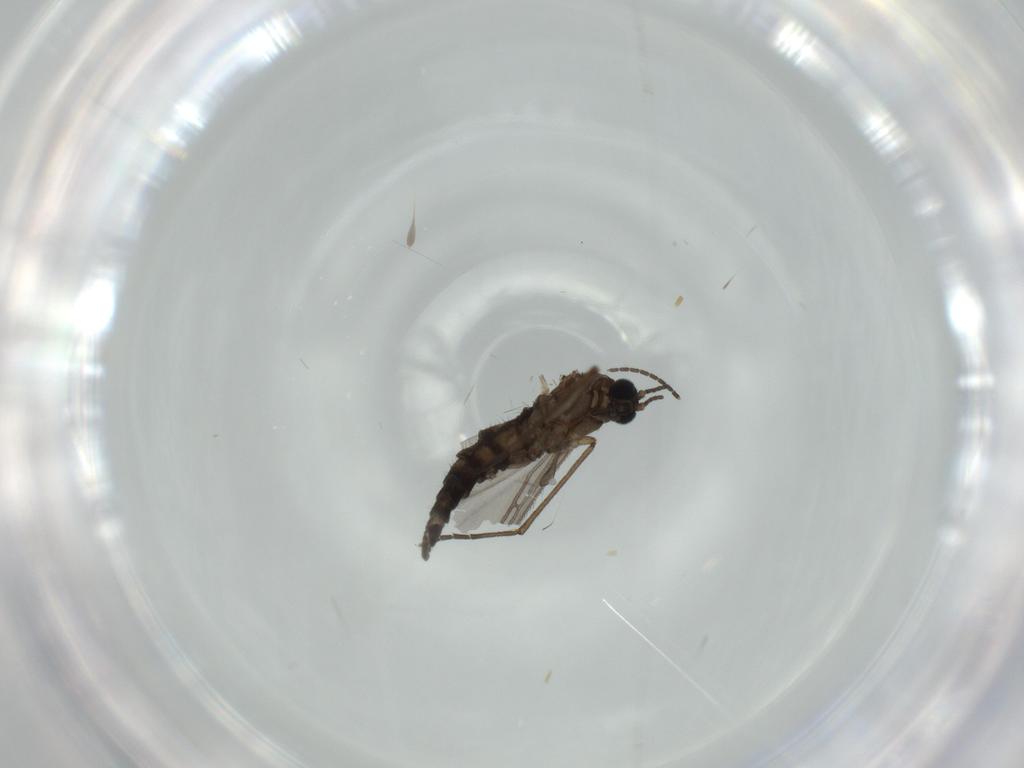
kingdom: Animalia
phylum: Arthropoda
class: Insecta
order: Diptera
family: Sciaridae
